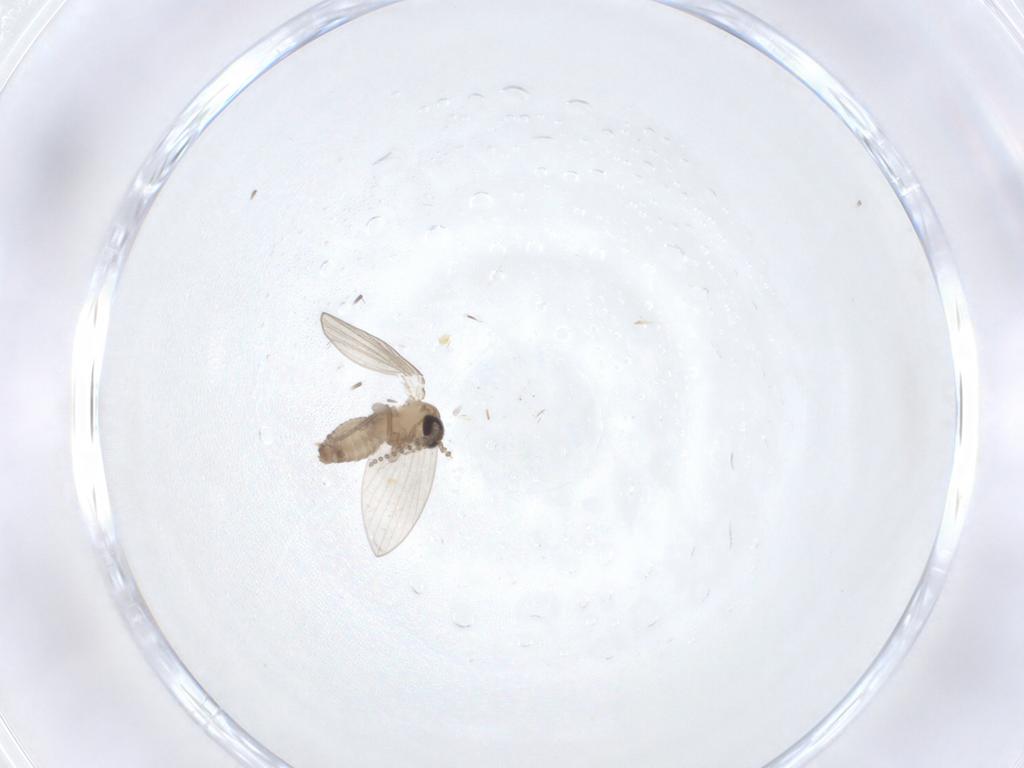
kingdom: Animalia
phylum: Arthropoda
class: Insecta
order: Diptera
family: Psychodidae
